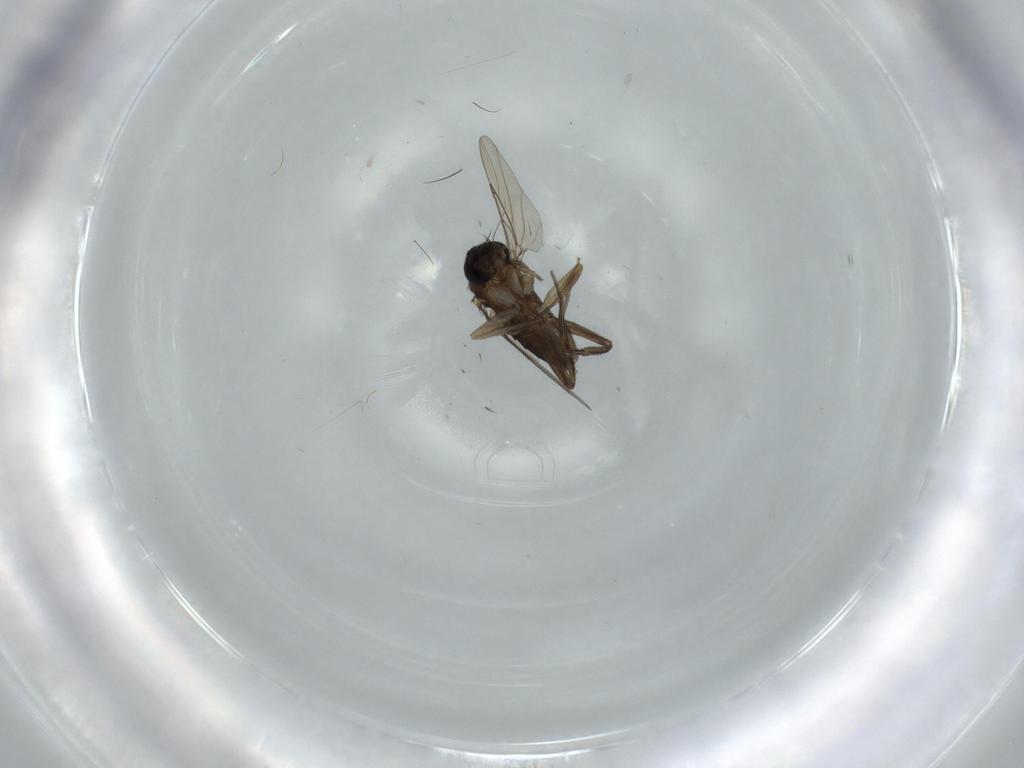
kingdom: Animalia
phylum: Arthropoda
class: Insecta
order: Diptera
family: Phoridae
